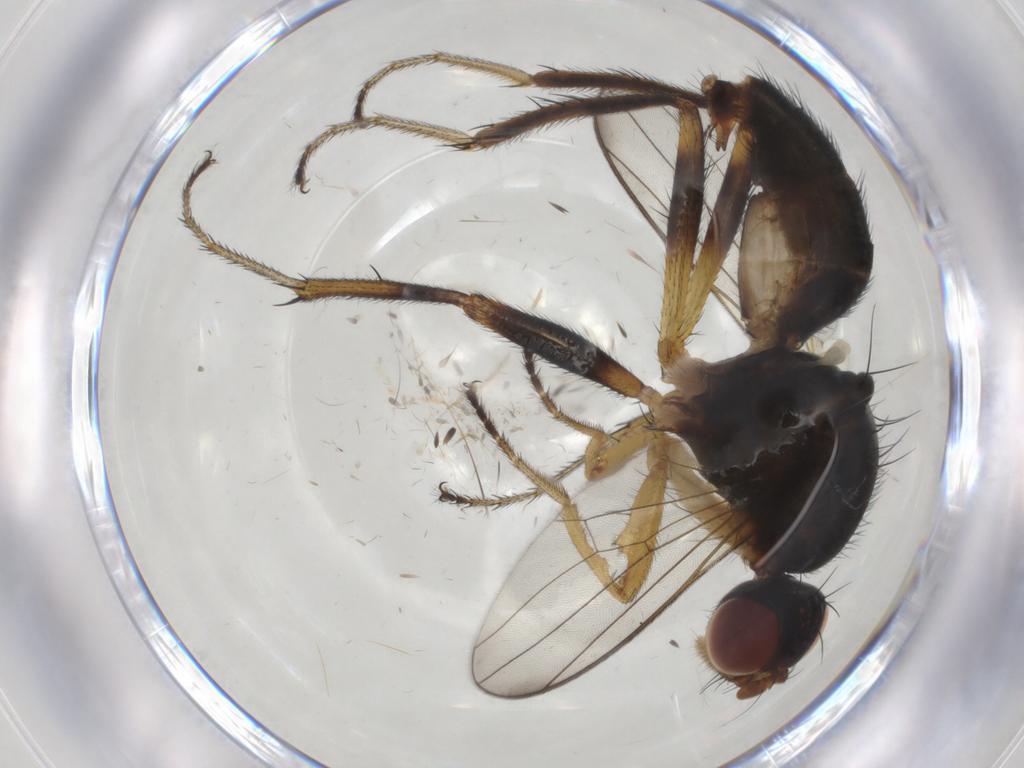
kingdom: Animalia
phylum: Arthropoda
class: Insecta
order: Diptera
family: Sepsidae
